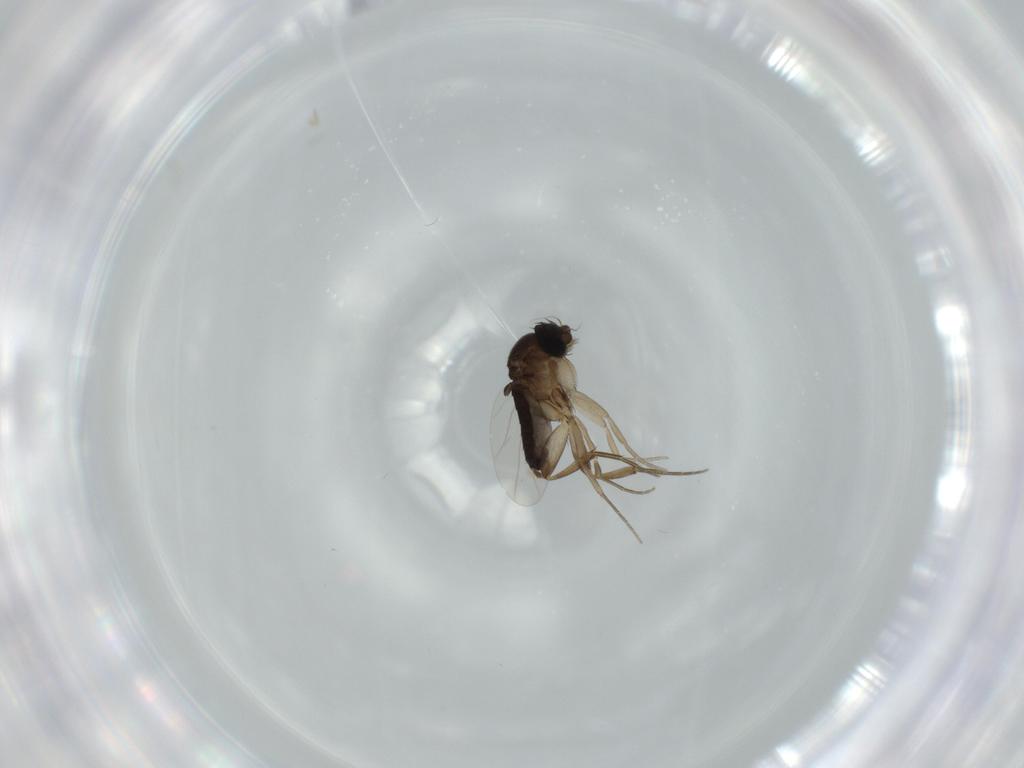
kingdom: Animalia
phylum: Arthropoda
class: Insecta
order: Diptera
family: Phoridae
